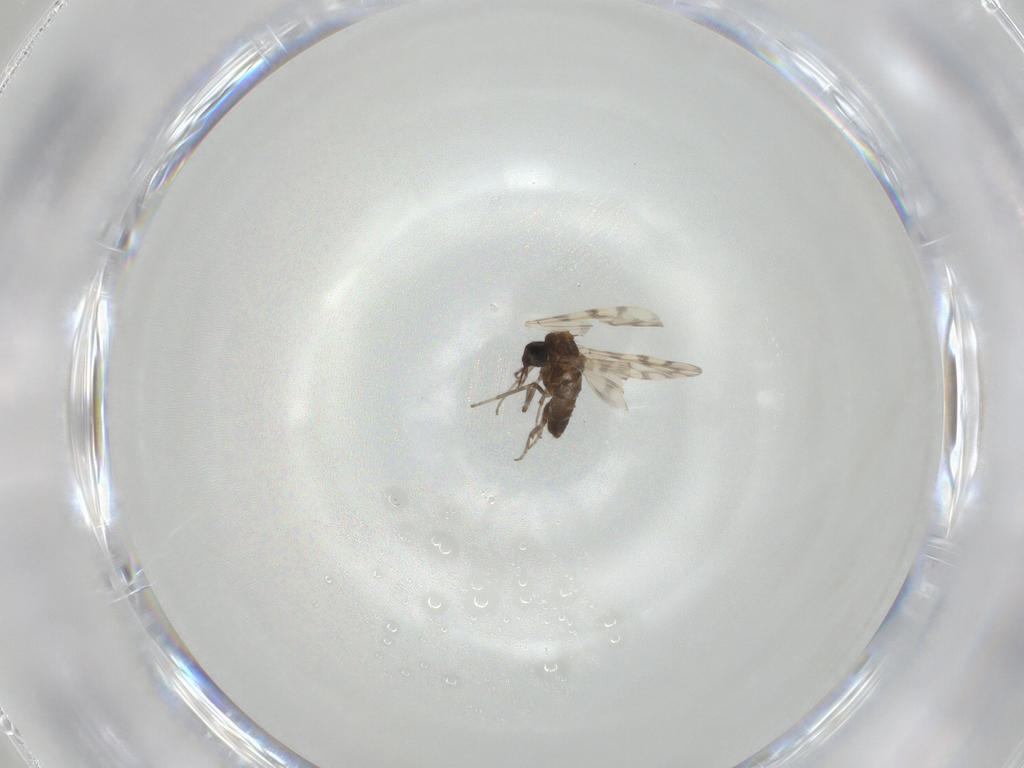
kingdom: Animalia
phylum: Arthropoda
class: Insecta
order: Diptera
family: Ceratopogonidae
